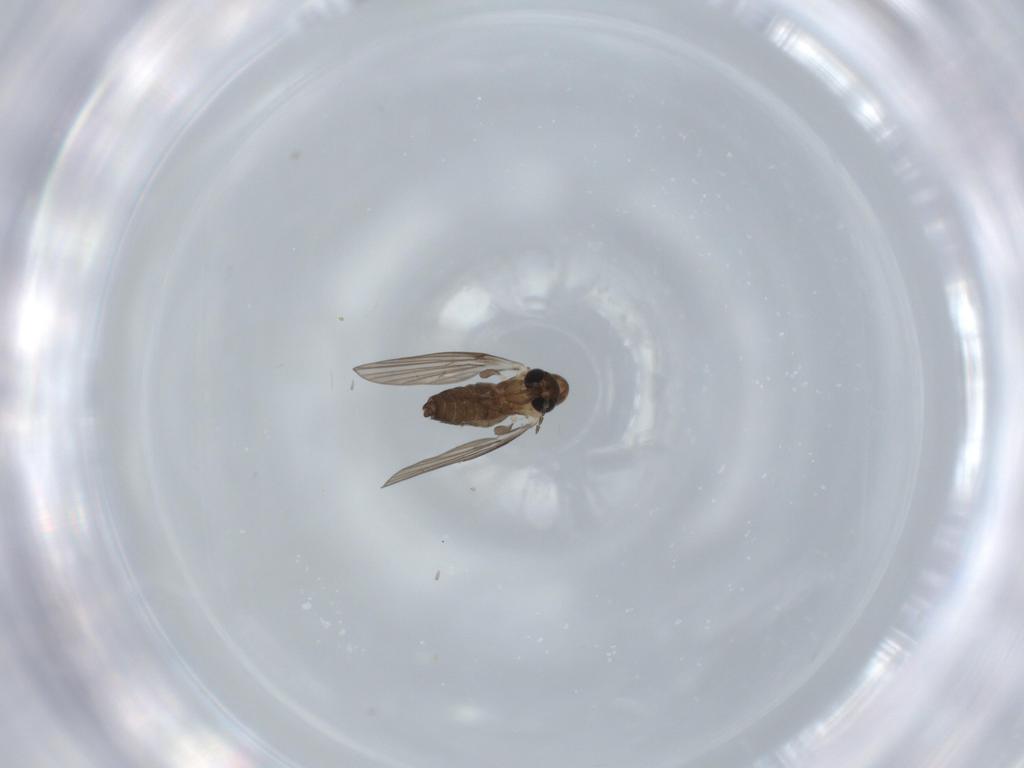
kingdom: Animalia
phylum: Arthropoda
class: Insecta
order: Diptera
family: Psychodidae
